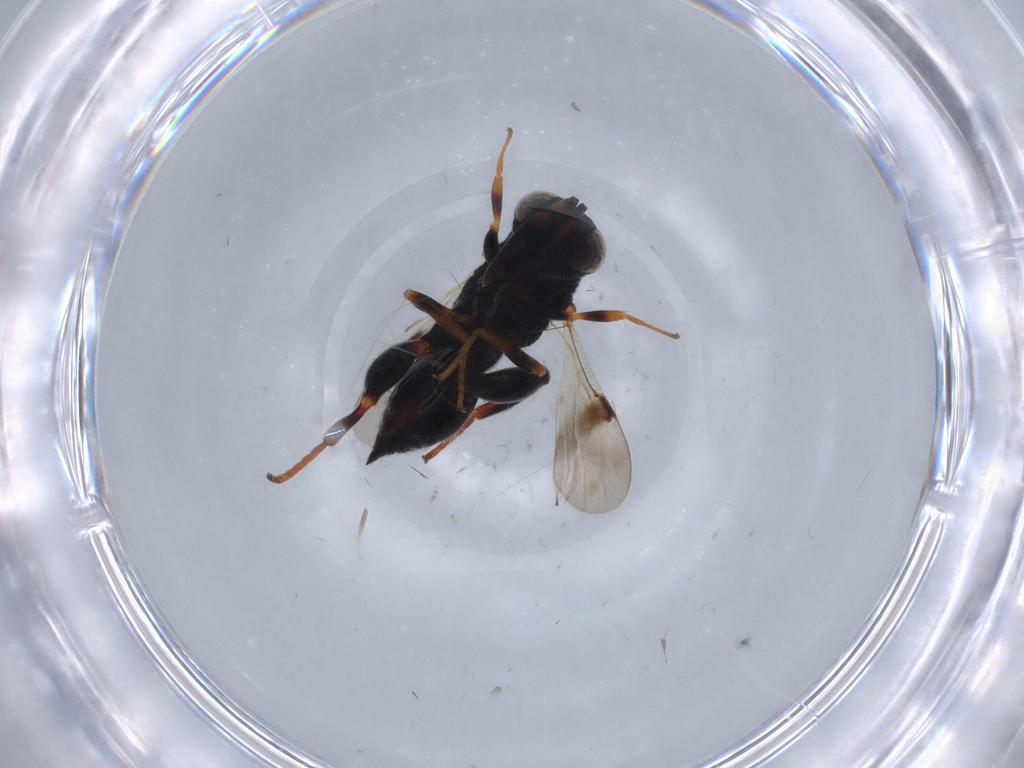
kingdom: Animalia
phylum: Arthropoda
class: Insecta
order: Hymenoptera
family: Chalcididae
